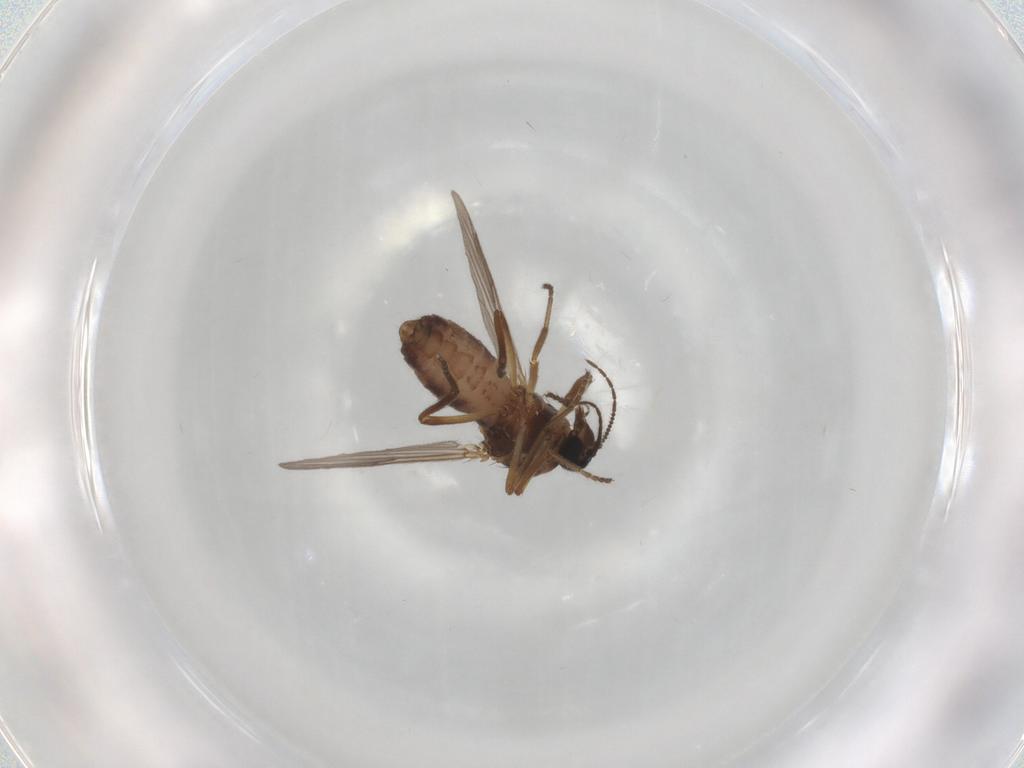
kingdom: Animalia
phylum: Arthropoda
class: Insecta
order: Diptera
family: Ceratopogonidae
